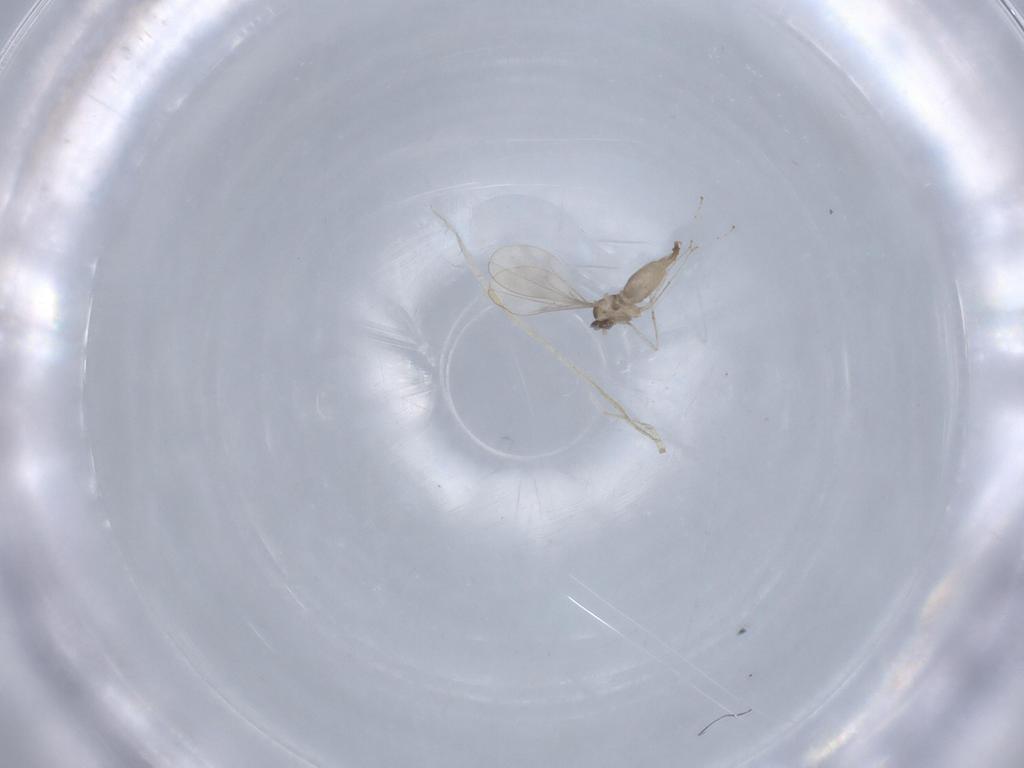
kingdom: Animalia
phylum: Arthropoda
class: Insecta
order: Diptera
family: Cecidomyiidae
